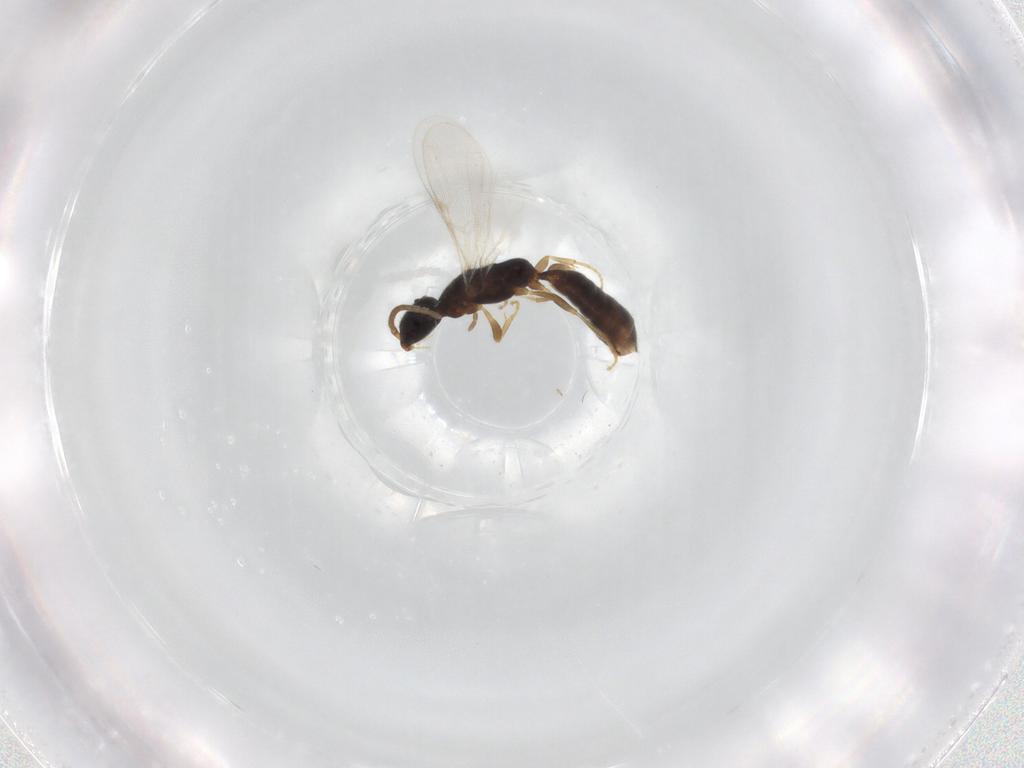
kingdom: Animalia
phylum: Arthropoda
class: Insecta
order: Hymenoptera
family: Bethylidae
